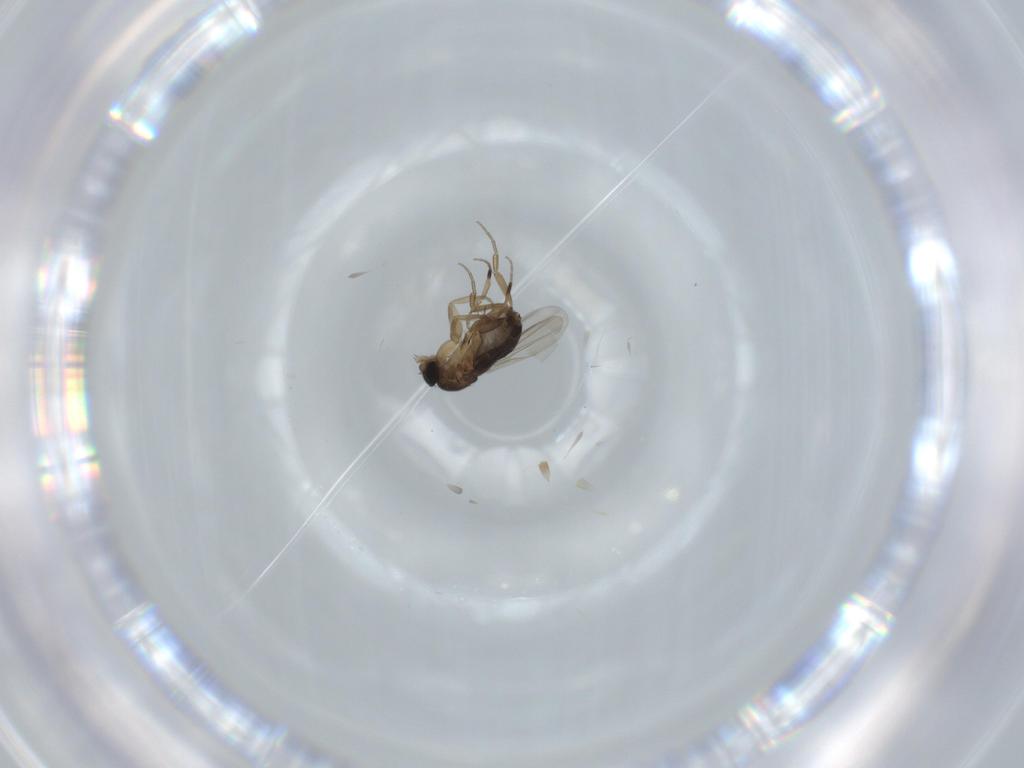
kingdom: Animalia
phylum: Arthropoda
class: Insecta
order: Diptera
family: Phoridae
